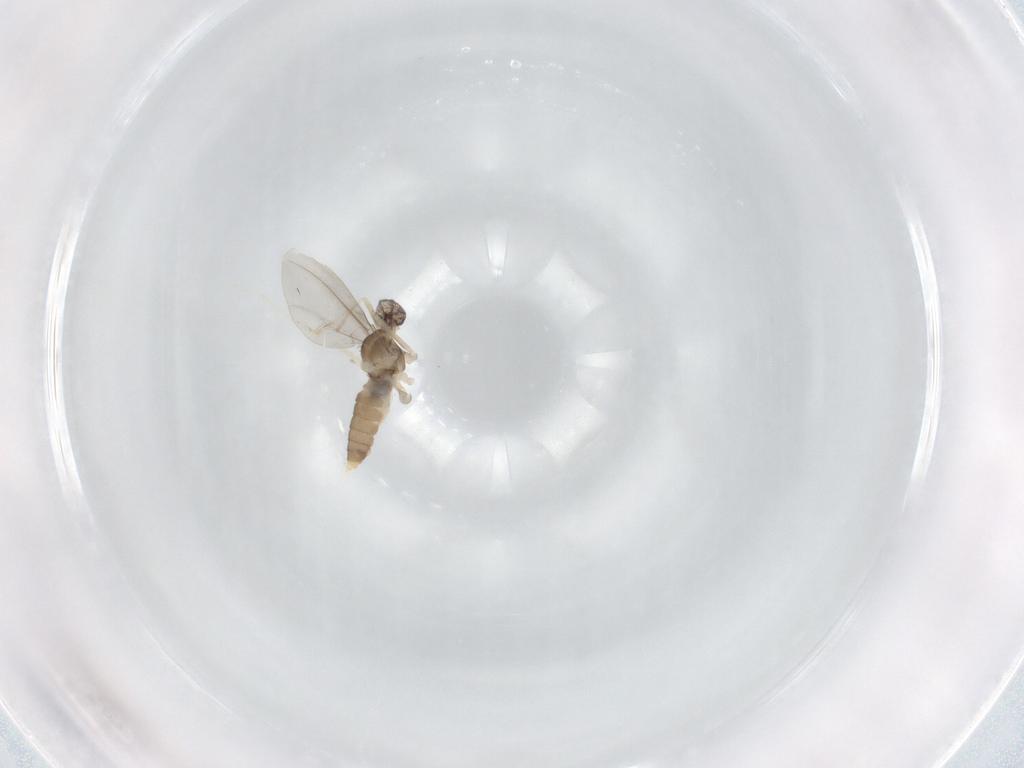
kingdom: Animalia
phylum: Arthropoda
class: Insecta
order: Diptera
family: Cecidomyiidae
